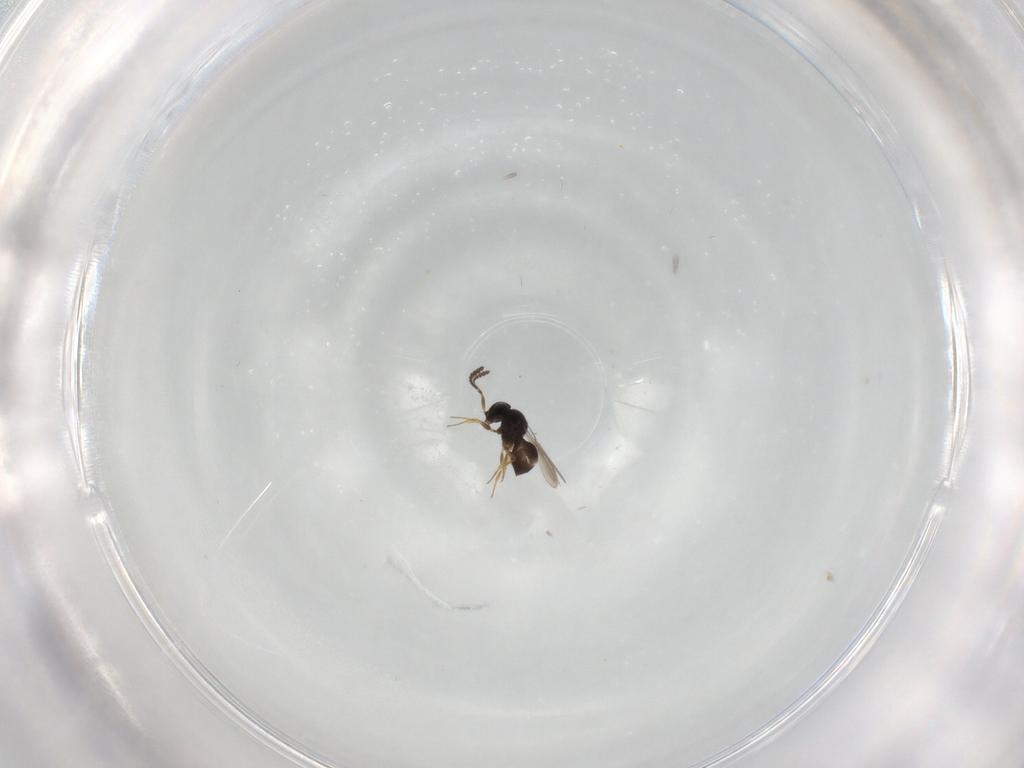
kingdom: Animalia
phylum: Arthropoda
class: Insecta
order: Hymenoptera
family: Scelionidae
